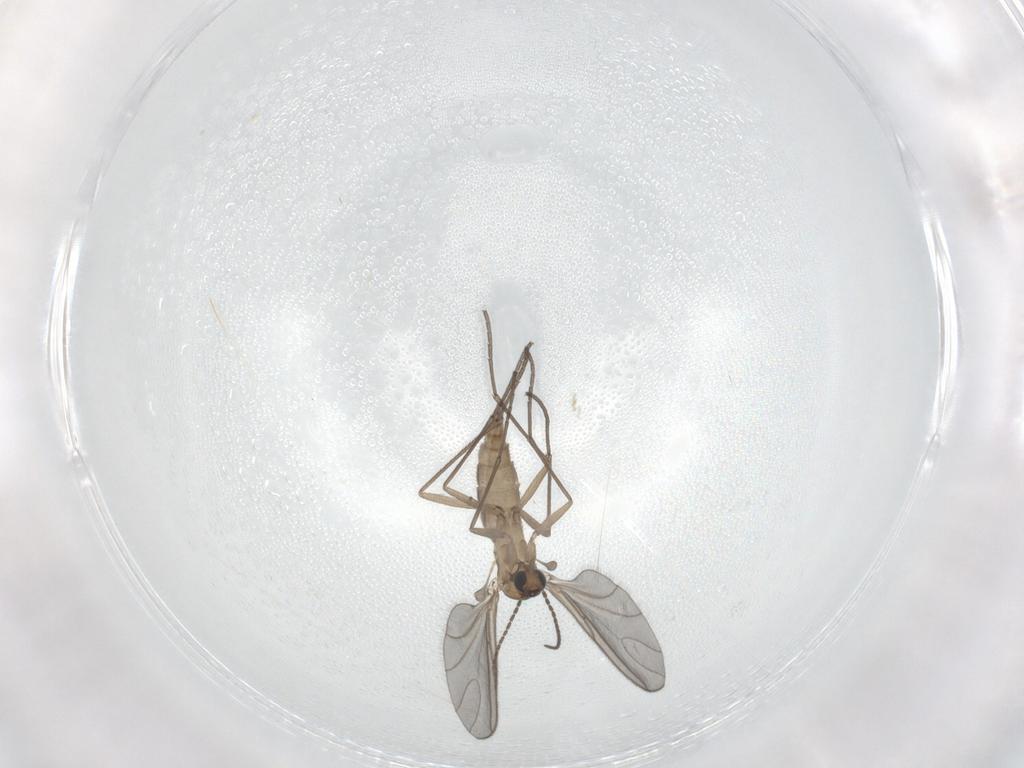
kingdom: Animalia
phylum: Arthropoda
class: Insecta
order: Diptera
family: Sciaridae
